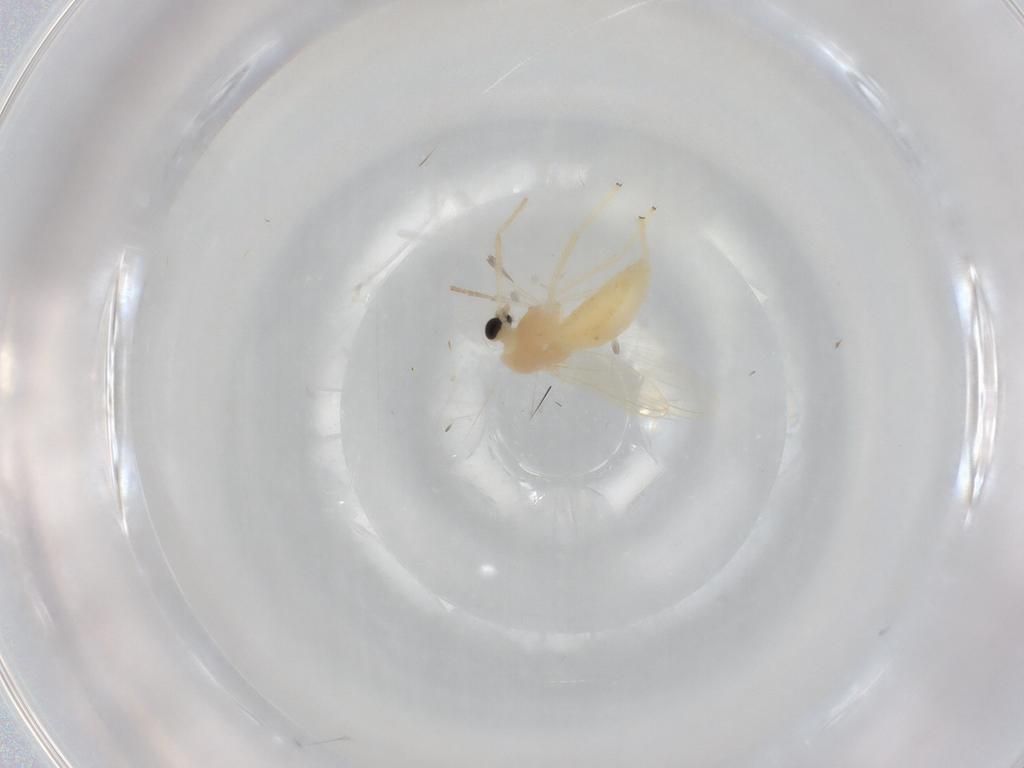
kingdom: Animalia
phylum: Arthropoda
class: Insecta
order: Diptera
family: Chironomidae
